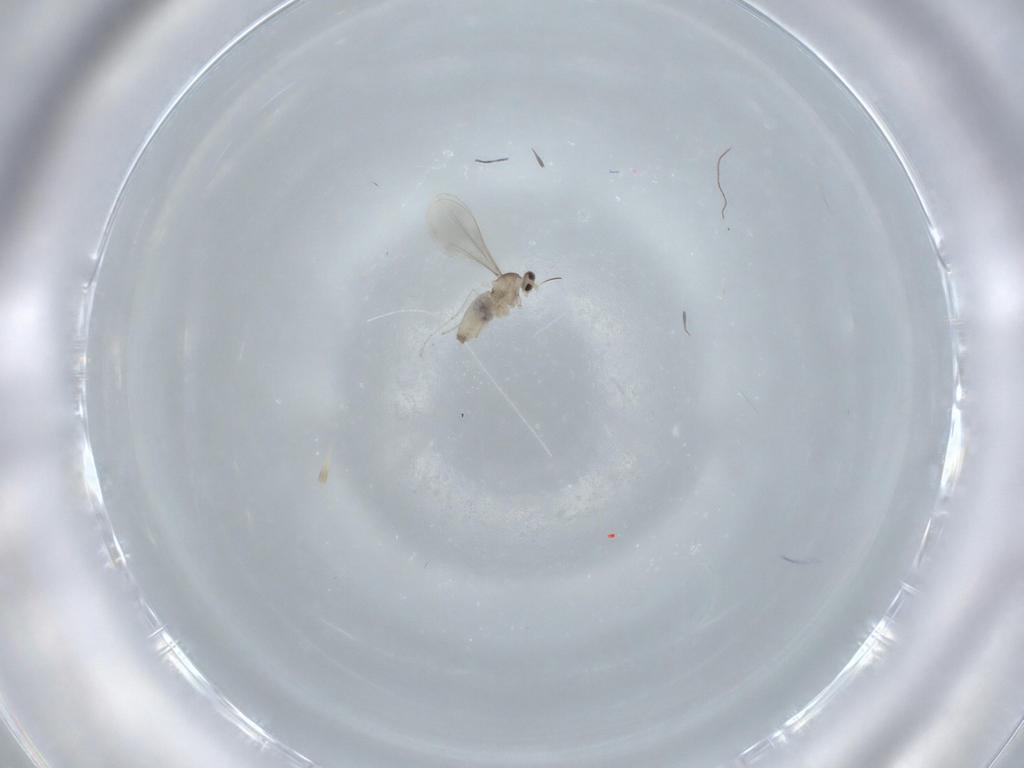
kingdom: Animalia
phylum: Arthropoda
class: Insecta
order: Diptera
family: Cecidomyiidae
